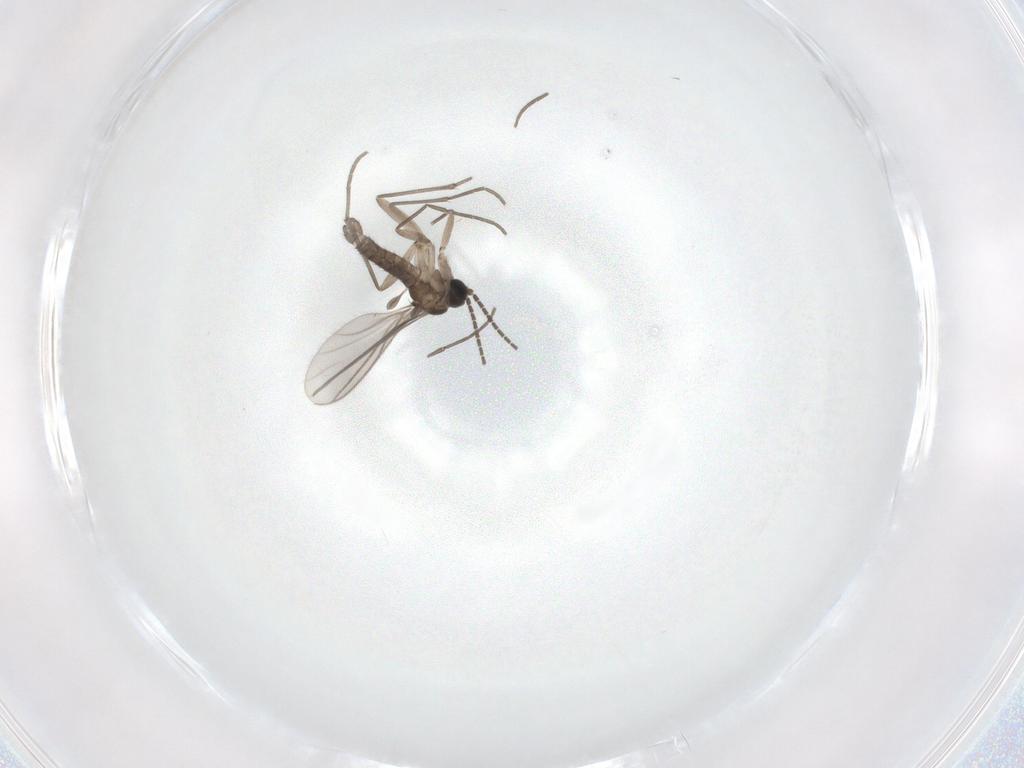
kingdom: Animalia
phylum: Arthropoda
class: Insecta
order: Diptera
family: Sciaridae
